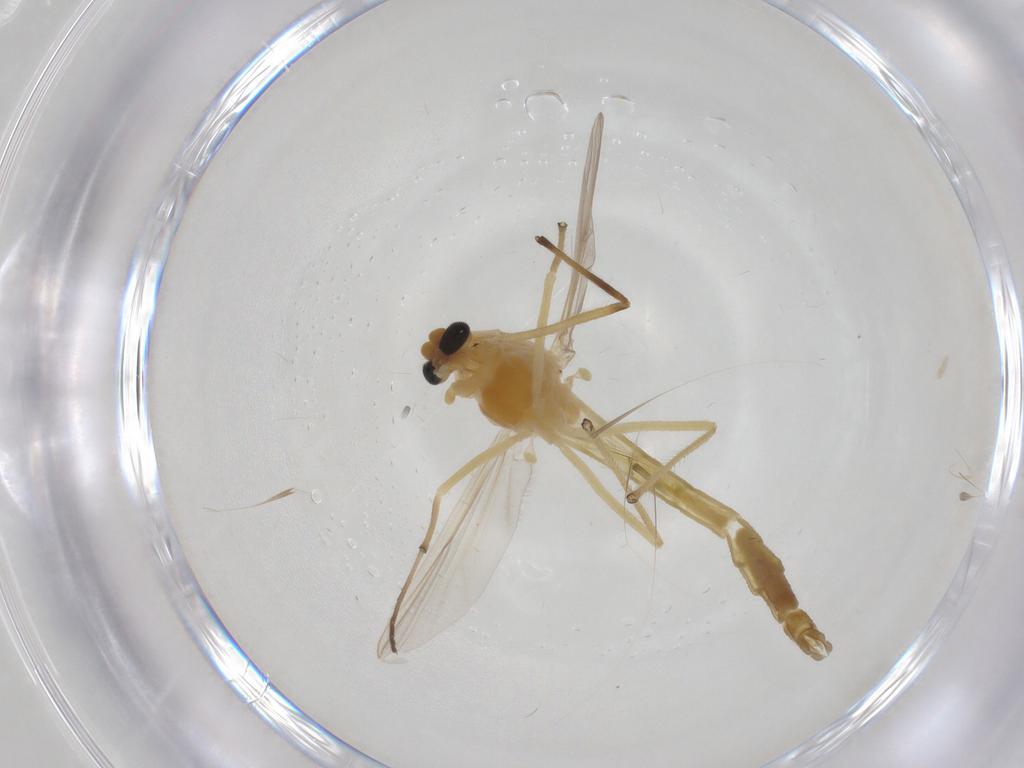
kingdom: Animalia
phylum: Arthropoda
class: Insecta
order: Diptera
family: Chironomidae
